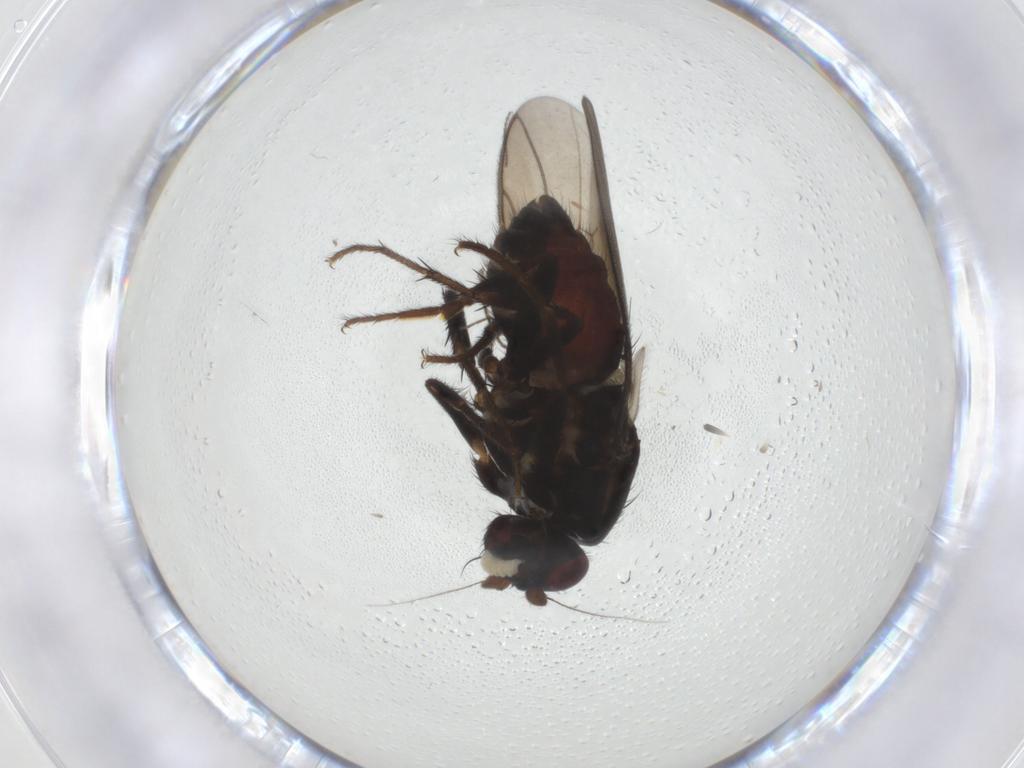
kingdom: Animalia
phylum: Arthropoda
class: Insecta
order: Diptera
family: Sphaeroceridae
